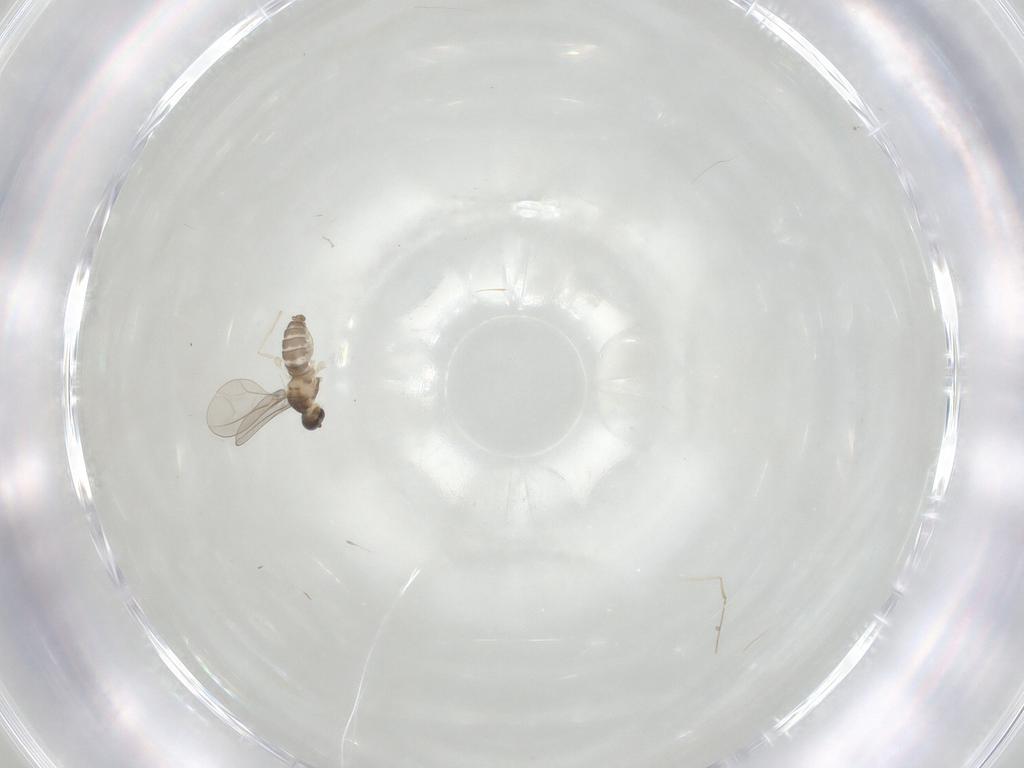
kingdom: Animalia
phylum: Arthropoda
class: Insecta
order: Diptera
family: Cecidomyiidae
